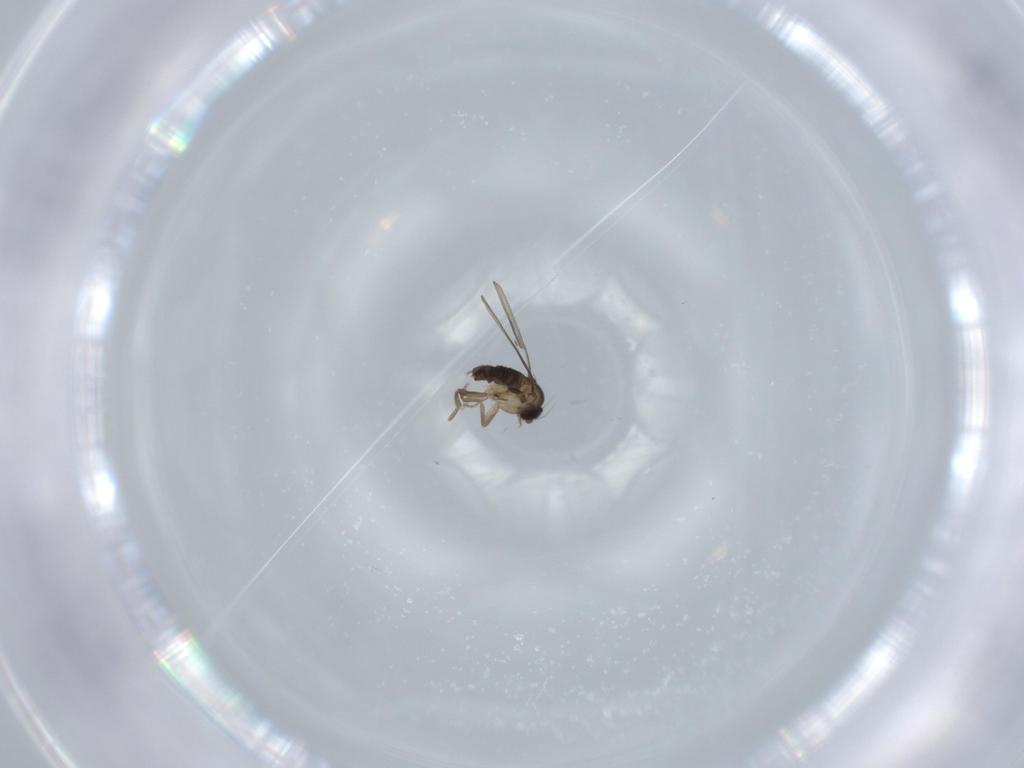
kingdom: Animalia
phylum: Arthropoda
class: Insecta
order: Diptera
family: Phoridae
